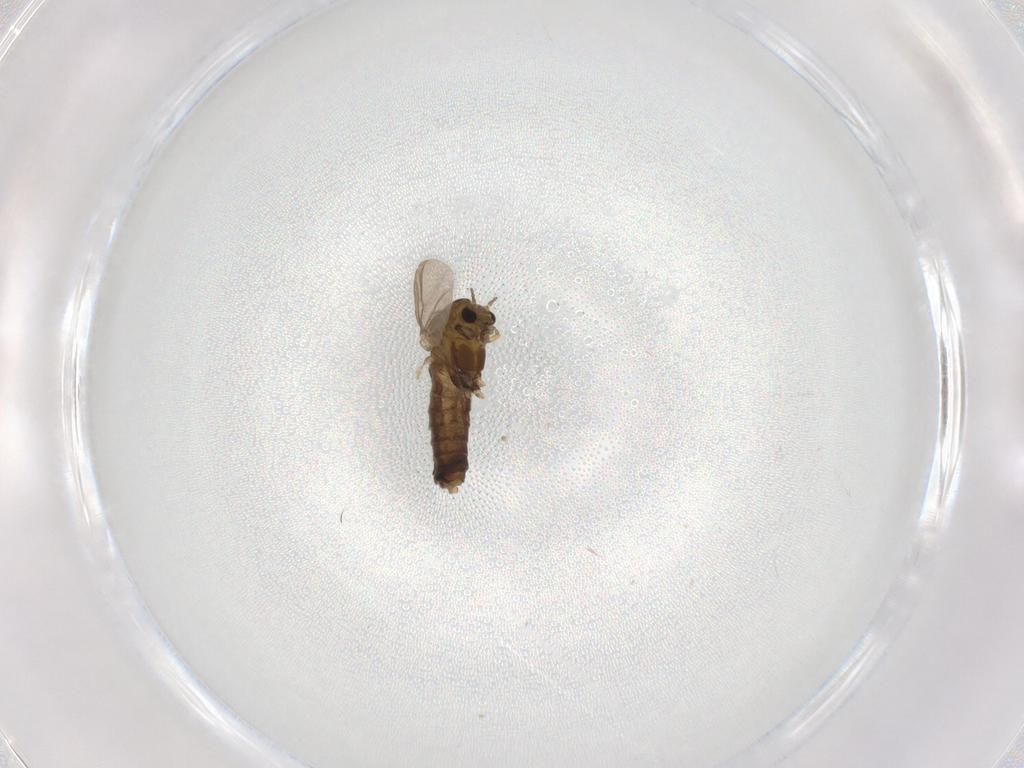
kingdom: Animalia
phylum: Arthropoda
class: Insecta
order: Diptera
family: Chironomidae
